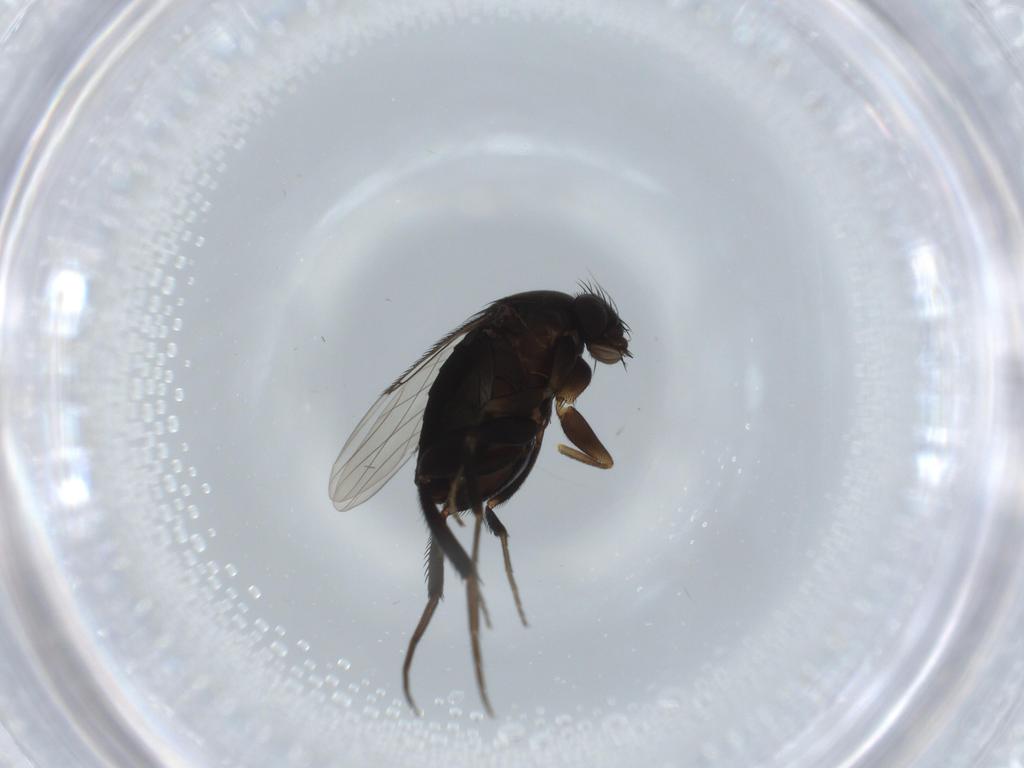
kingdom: Animalia
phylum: Arthropoda
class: Insecta
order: Diptera
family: Phoridae
